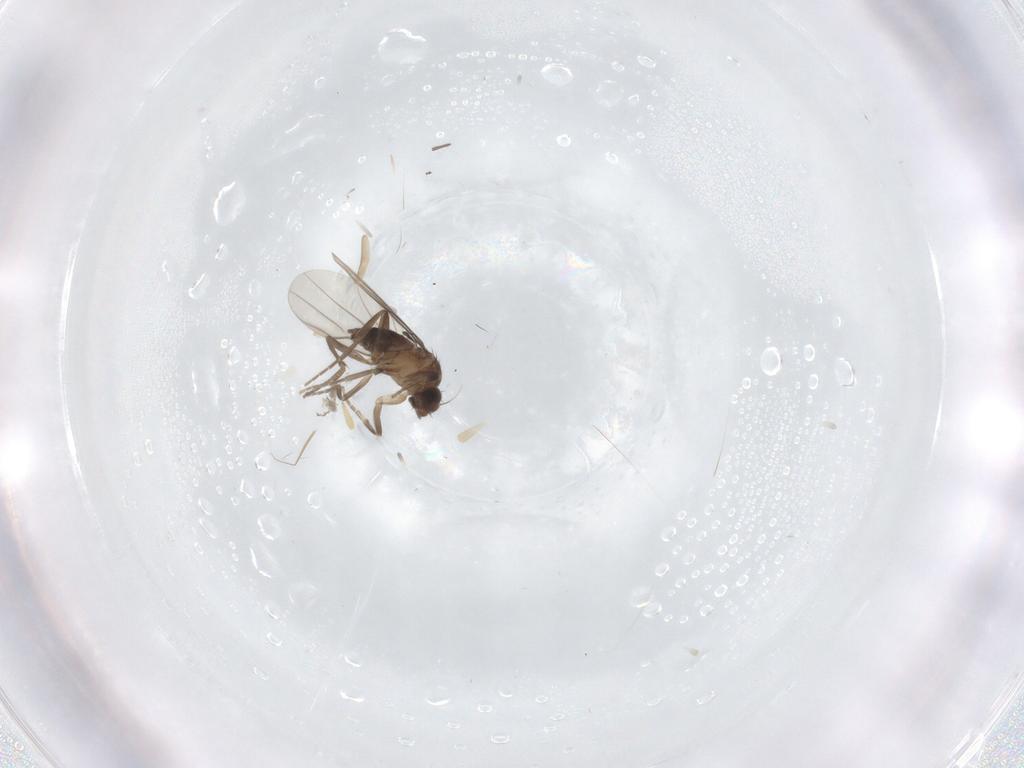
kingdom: Animalia
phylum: Arthropoda
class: Insecta
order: Diptera
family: Phoridae
